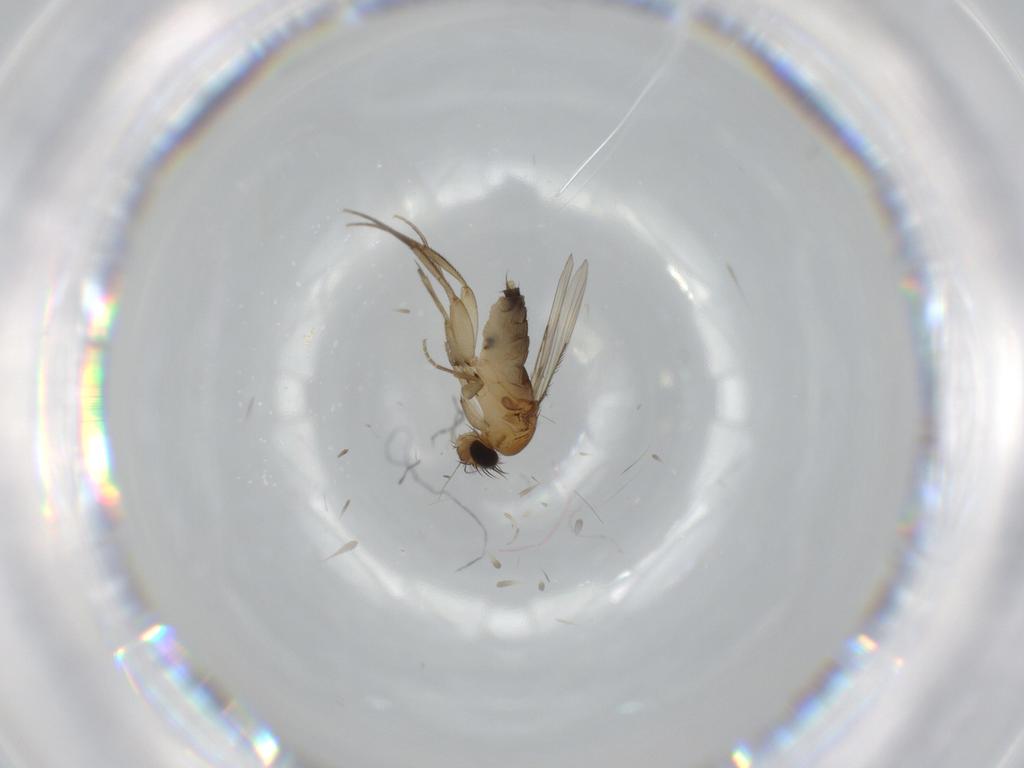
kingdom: Animalia
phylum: Arthropoda
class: Insecta
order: Diptera
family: Phoridae
